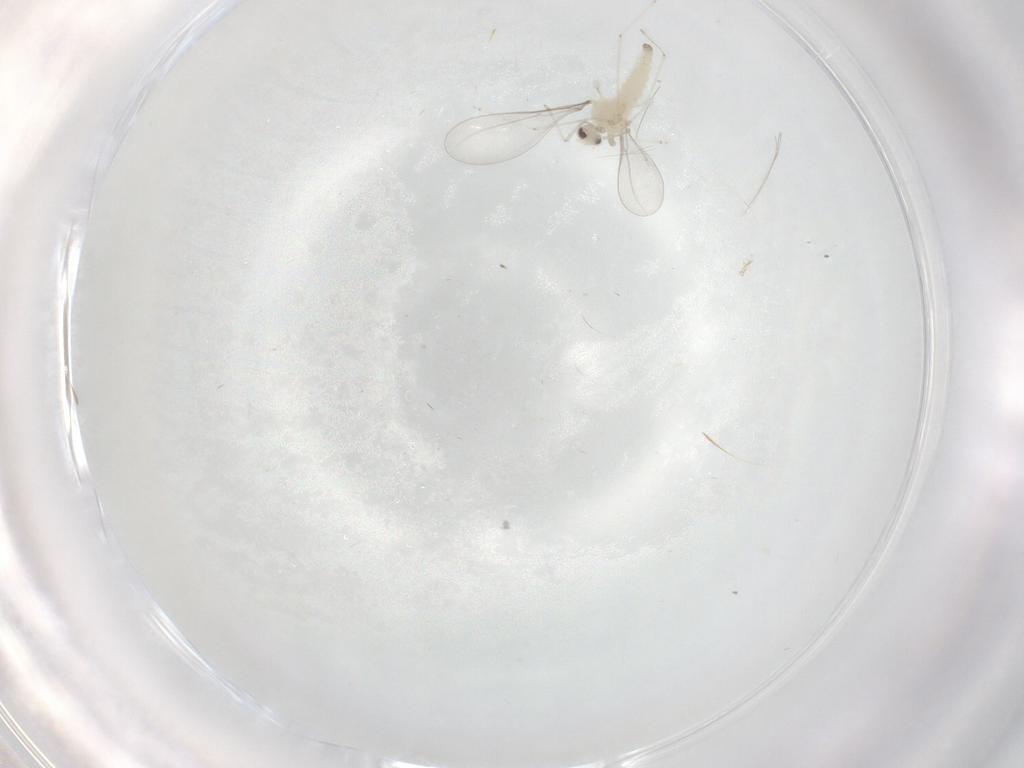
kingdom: Animalia
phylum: Arthropoda
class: Insecta
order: Diptera
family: Cecidomyiidae
